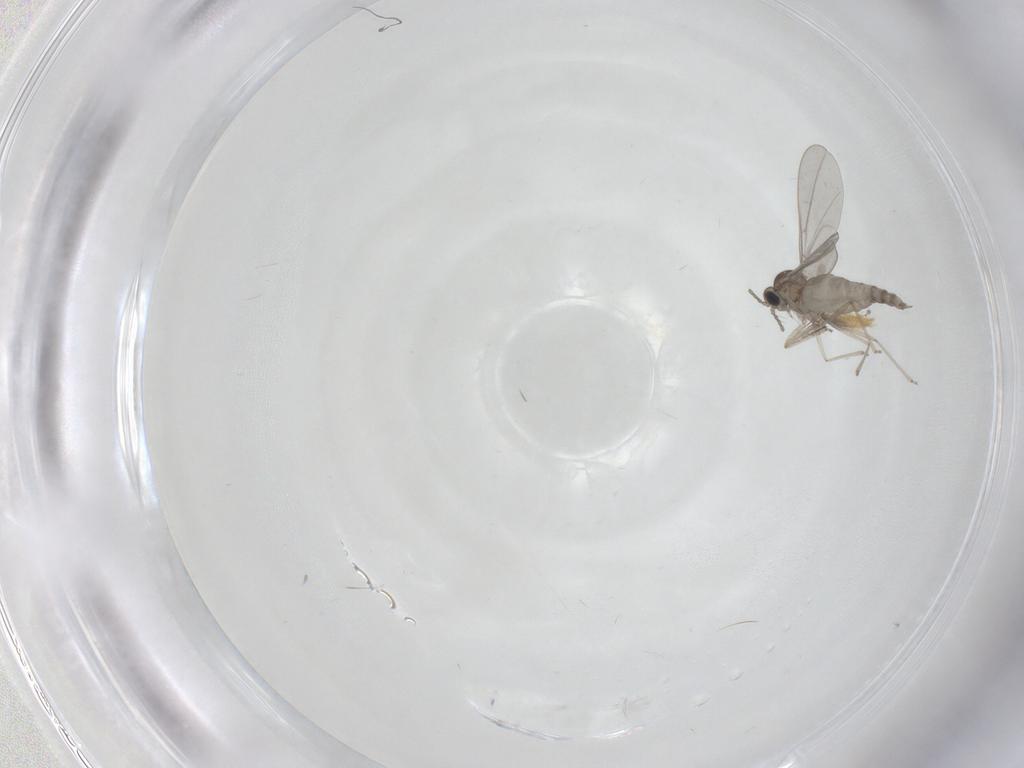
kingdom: Animalia
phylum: Arthropoda
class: Insecta
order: Diptera
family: Cecidomyiidae
